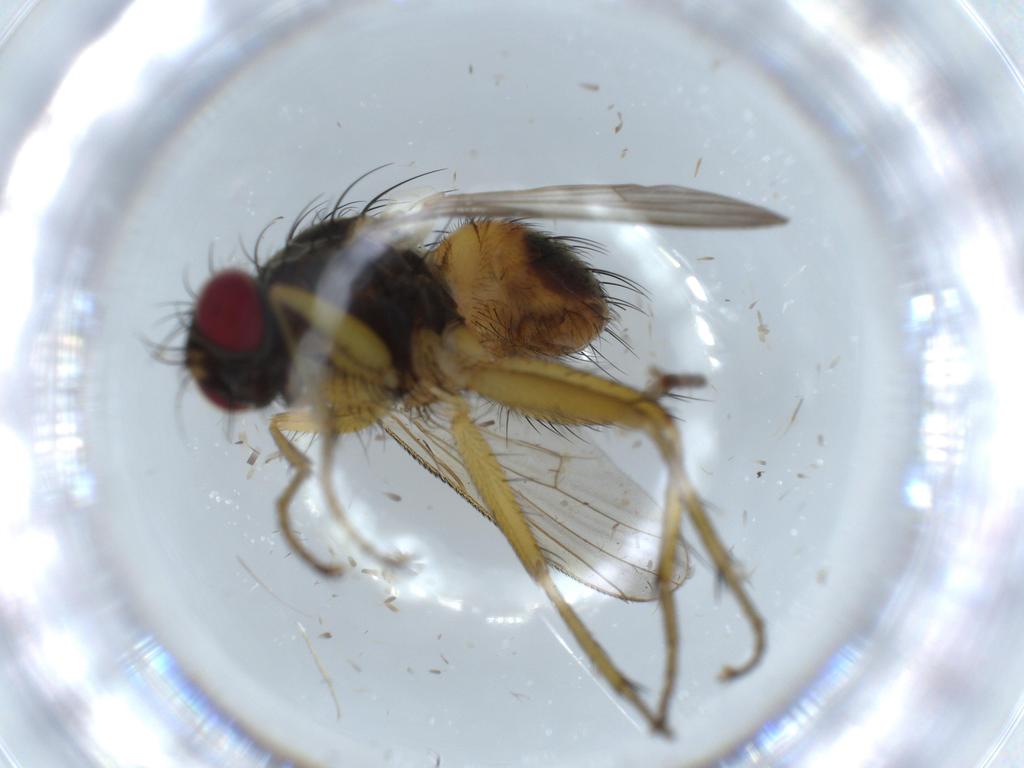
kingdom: Animalia
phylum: Arthropoda
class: Insecta
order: Diptera
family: Muscidae
